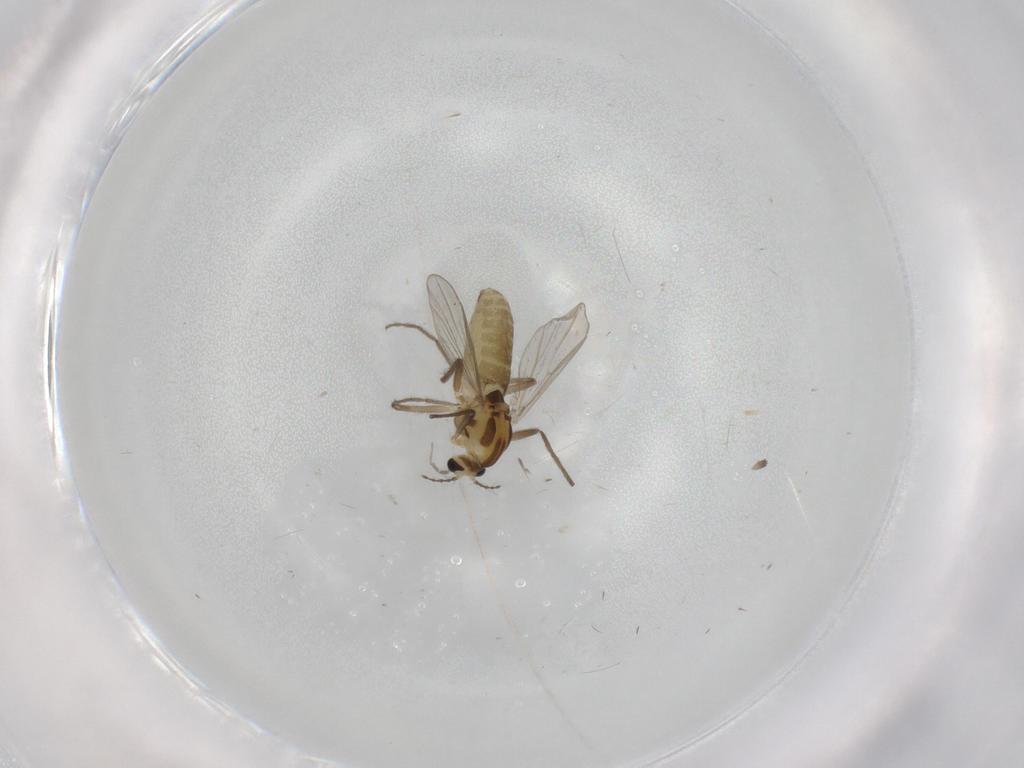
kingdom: Animalia
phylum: Arthropoda
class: Insecta
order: Diptera
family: Chironomidae
